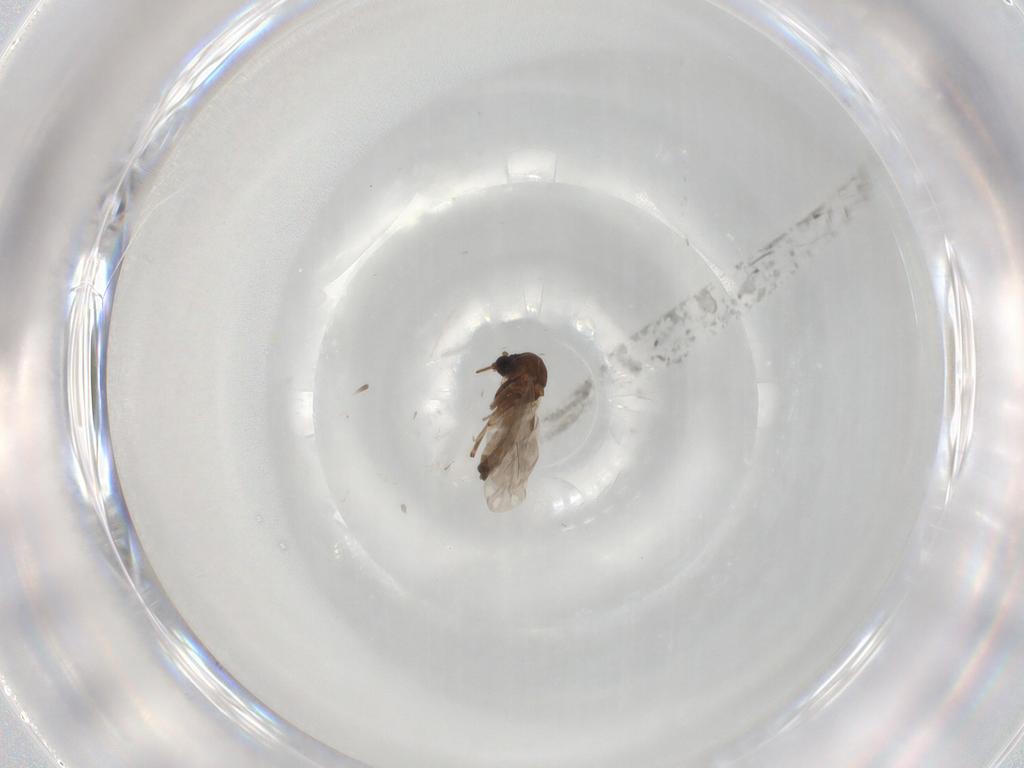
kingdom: Animalia
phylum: Arthropoda
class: Insecta
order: Diptera
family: Ceratopogonidae
